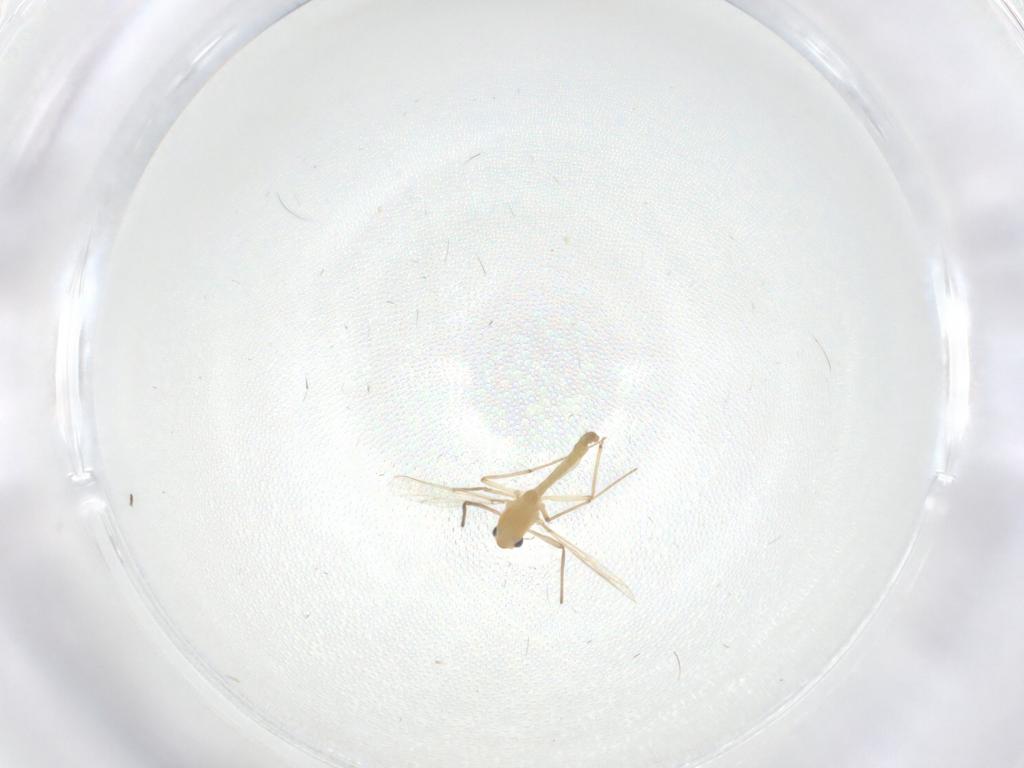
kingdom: Animalia
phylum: Arthropoda
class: Insecta
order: Diptera
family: Chironomidae
